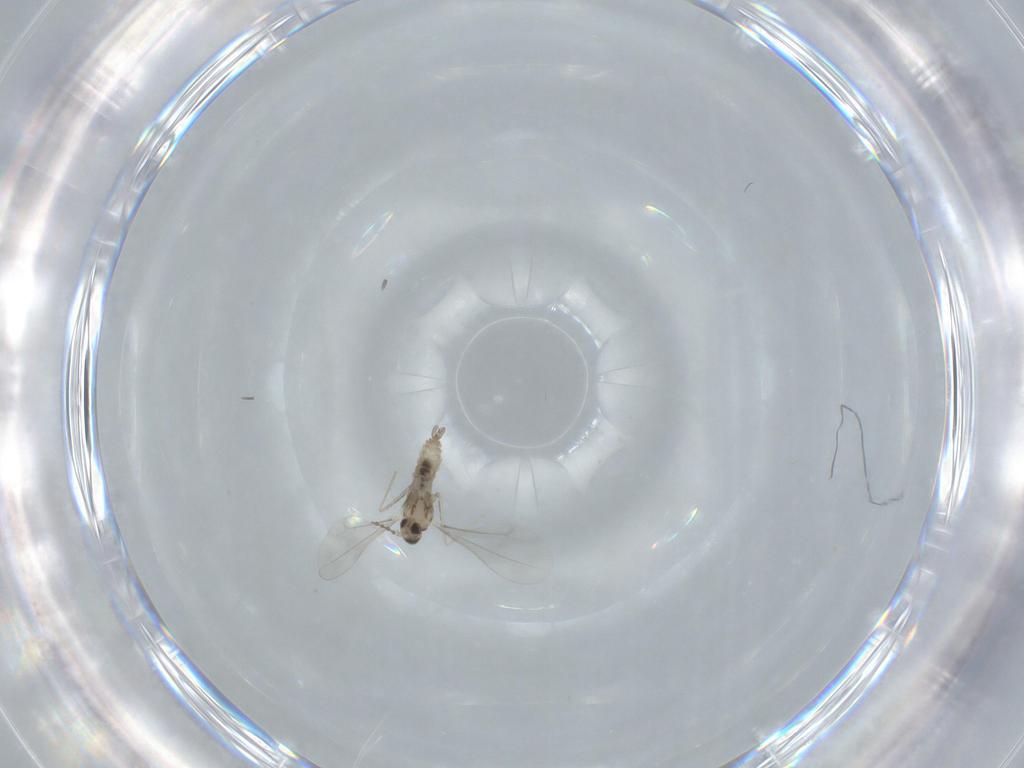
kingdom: Animalia
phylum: Arthropoda
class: Insecta
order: Diptera
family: Cecidomyiidae
